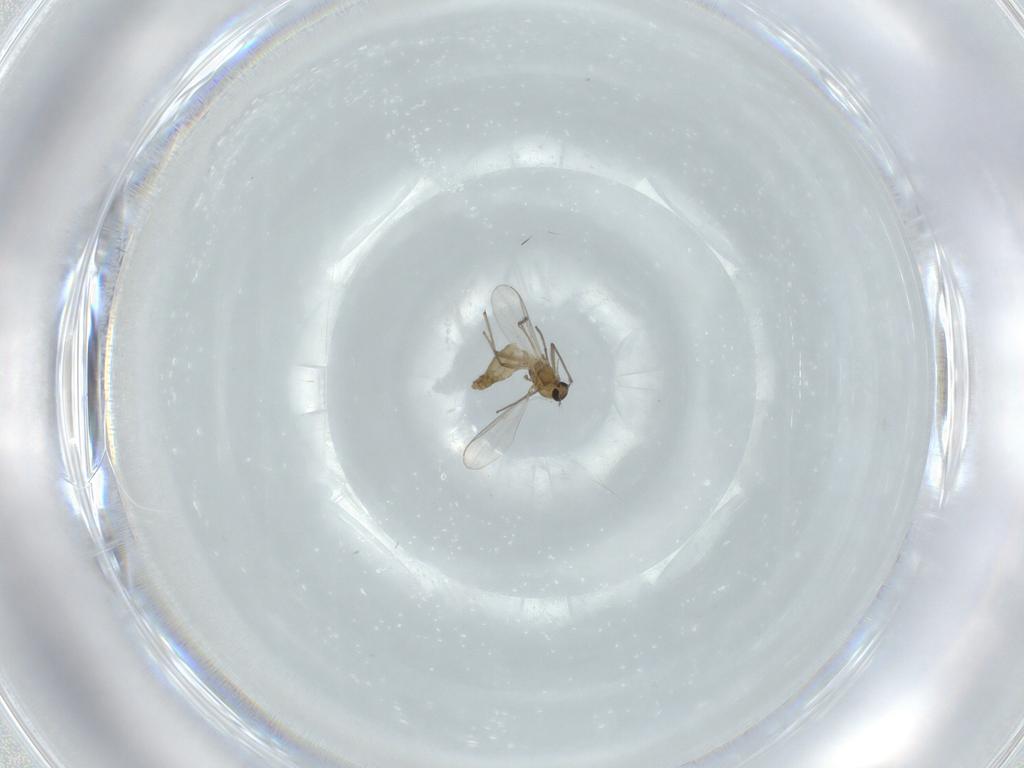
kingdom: Animalia
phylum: Arthropoda
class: Insecta
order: Diptera
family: Chironomidae
